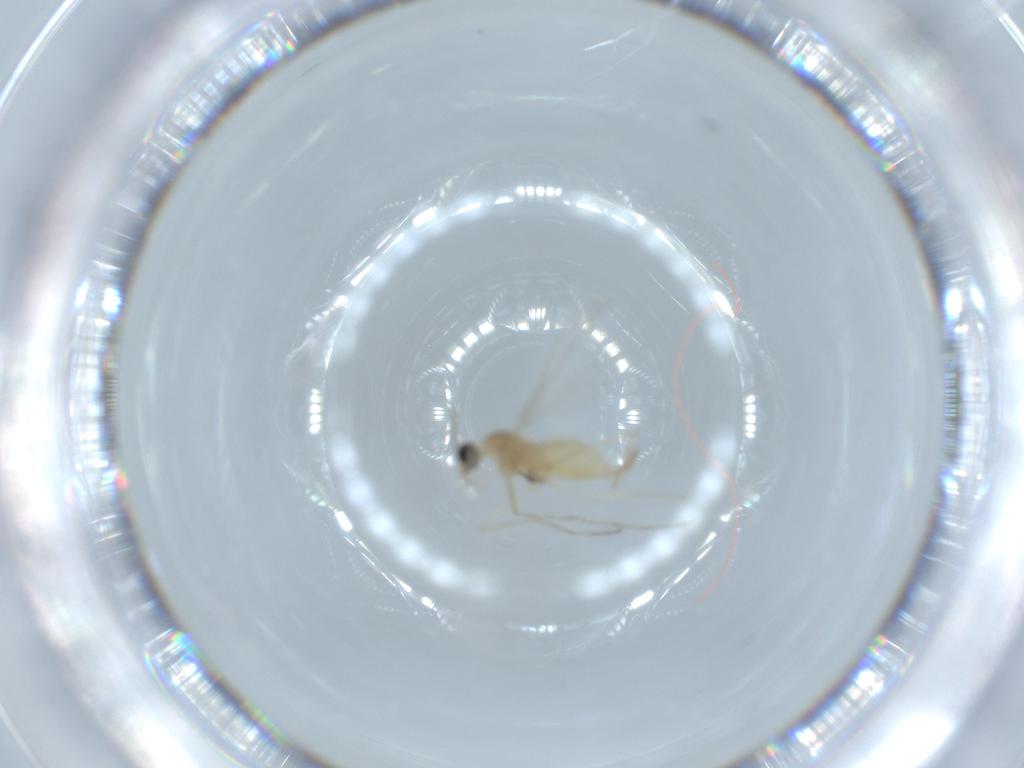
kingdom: Animalia
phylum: Arthropoda
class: Insecta
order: Diptera
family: Cecidomyiidae
